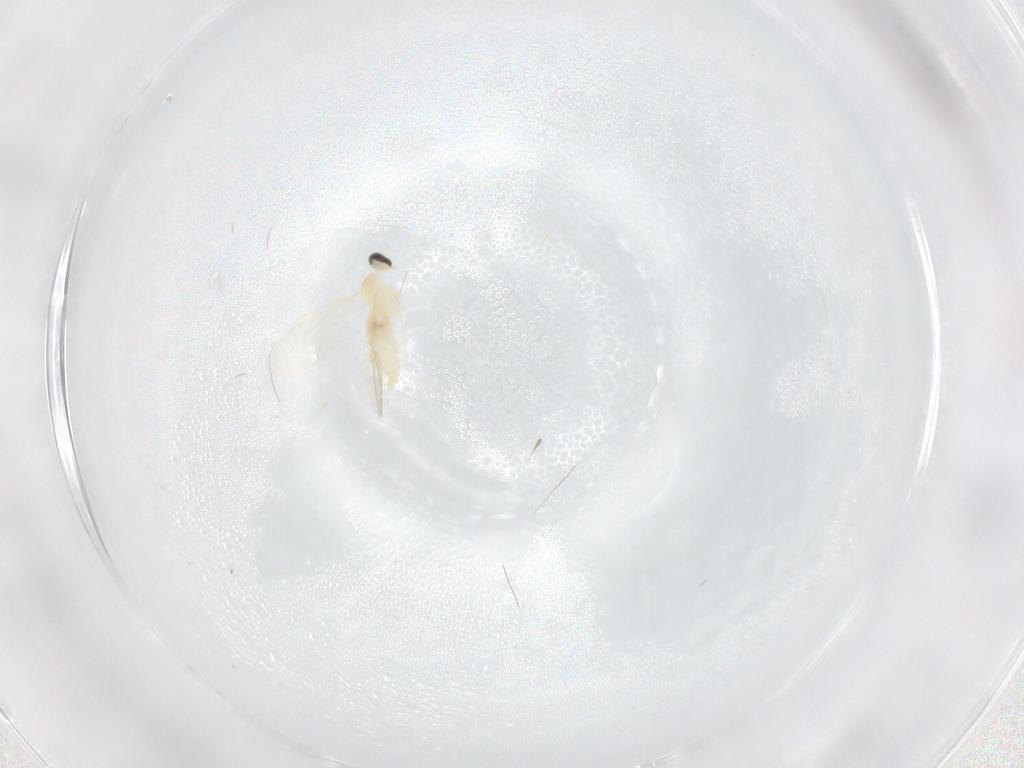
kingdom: Animalia
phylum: Arthropoda
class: Insecta
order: Diptera
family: Cecidomyiidae
